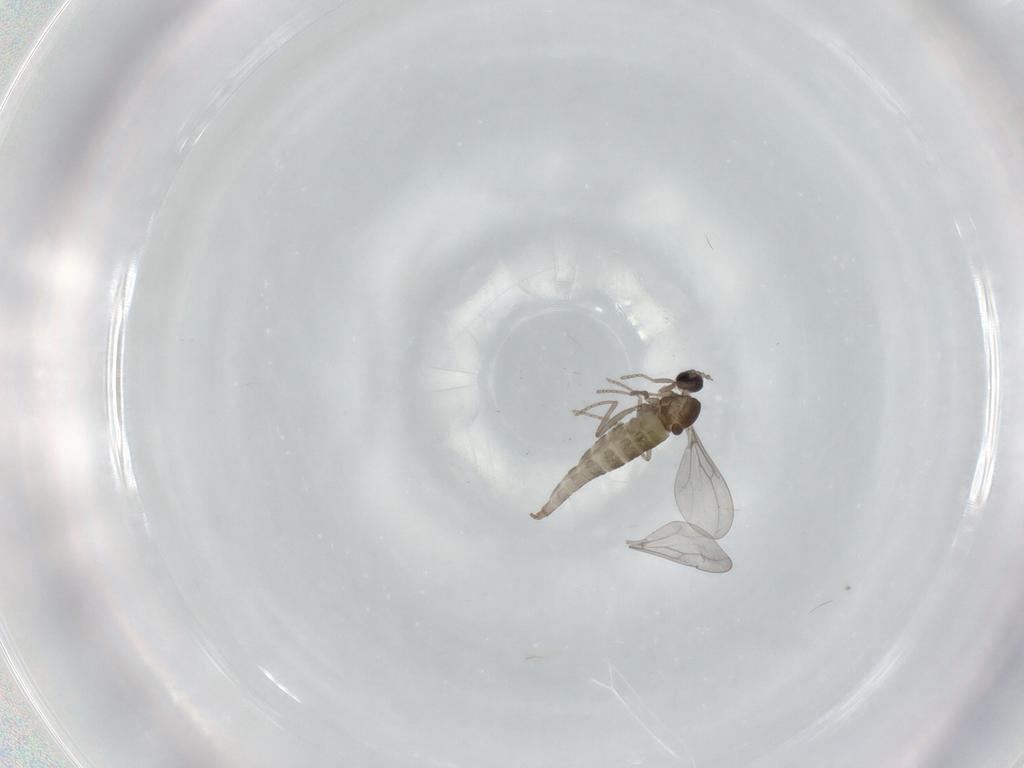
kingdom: Animalia
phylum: Arthropoda
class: Insecta
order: Diptera
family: Cecidomyiidae
